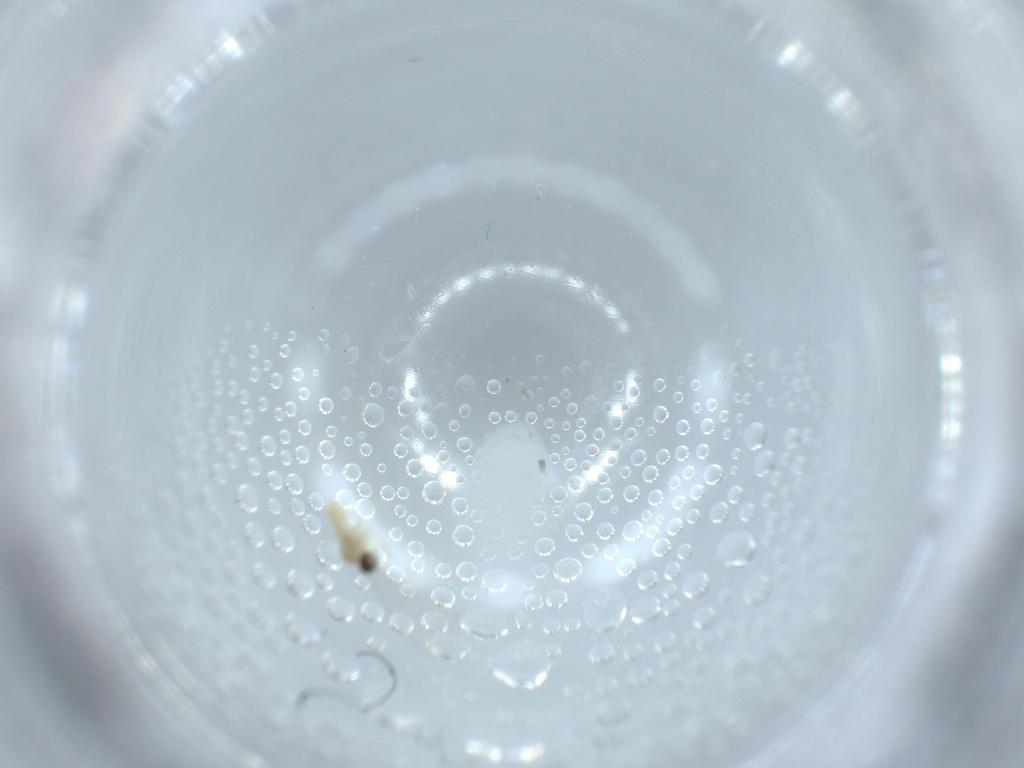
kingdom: Animalia
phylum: Arthropoda
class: Insecta
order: Diptera
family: Cecidomyiidae
